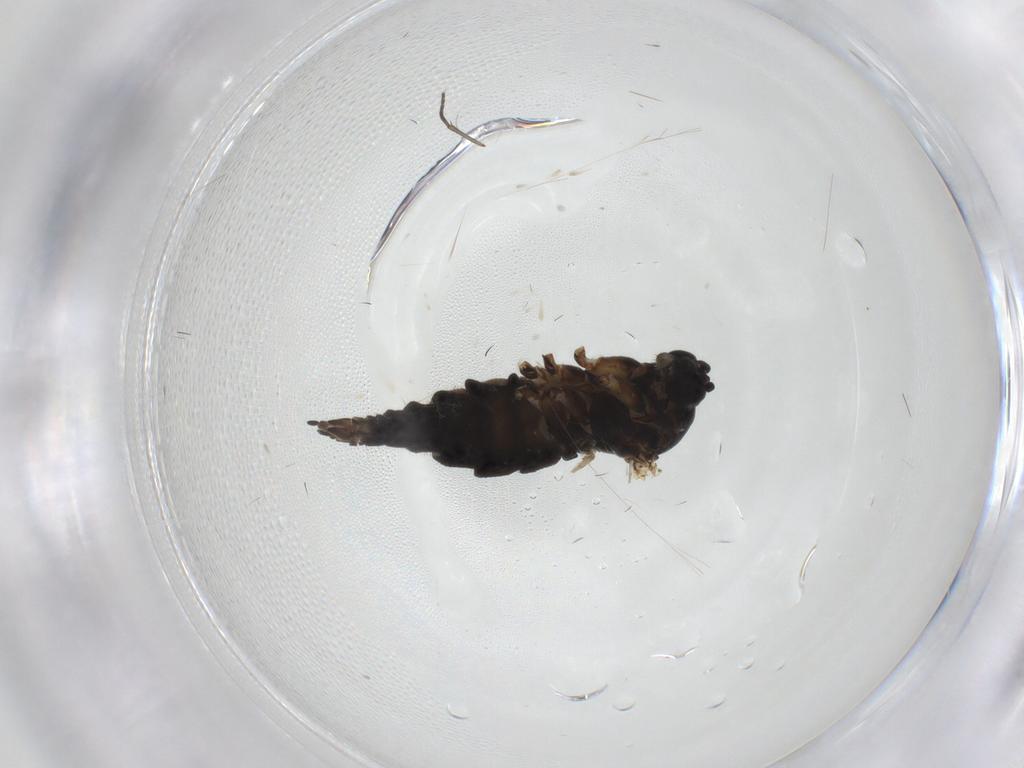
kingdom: Animalia
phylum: Arthropoda
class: Insecta
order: Diptera
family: Sciaridae
